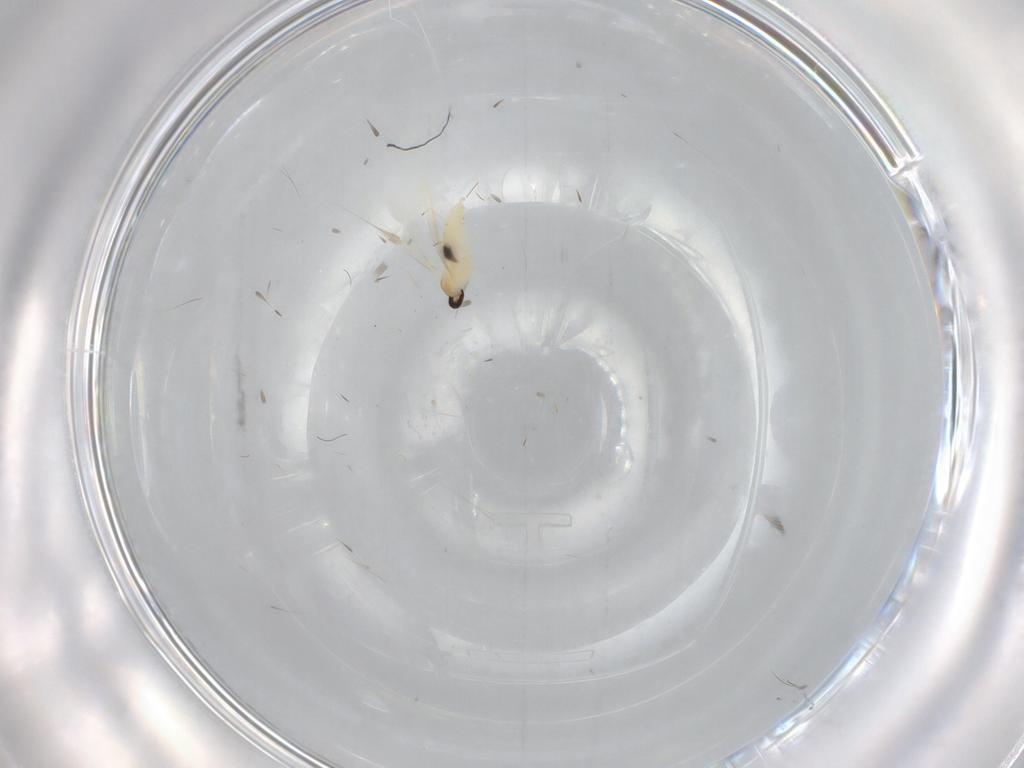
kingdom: Animalia
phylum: Arthropoda
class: Insecta
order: Diptera
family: Cecidomyiidae
